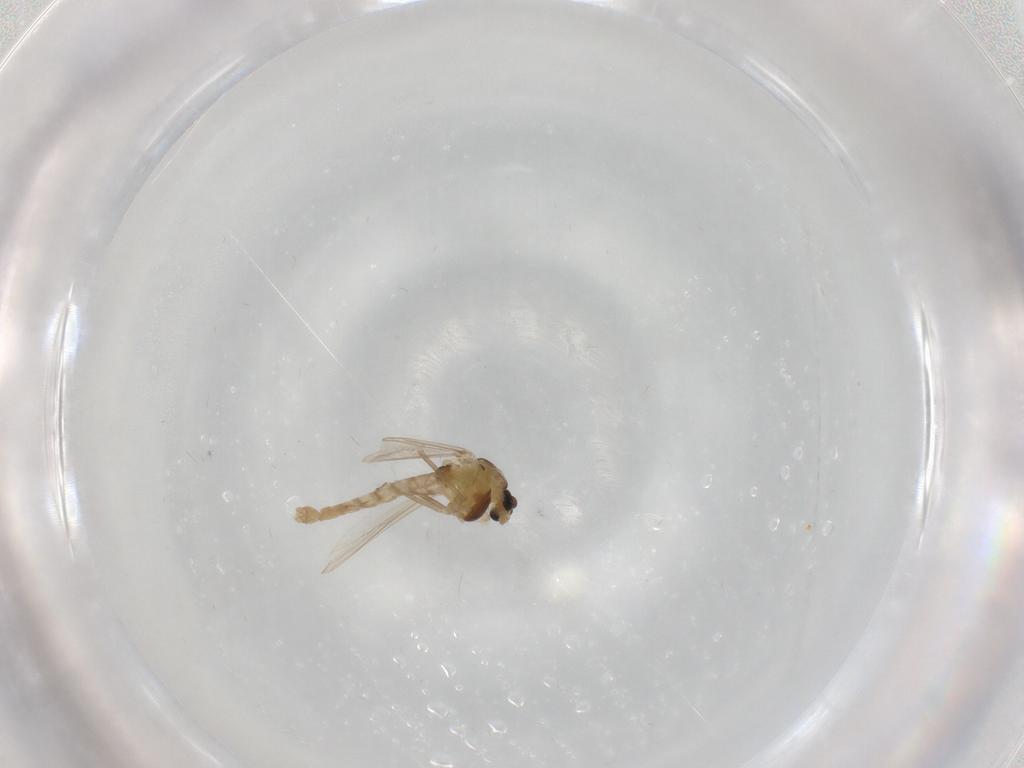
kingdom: Animalia
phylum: Arthropoda
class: Insecta
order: Diptera
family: Chironomidae
